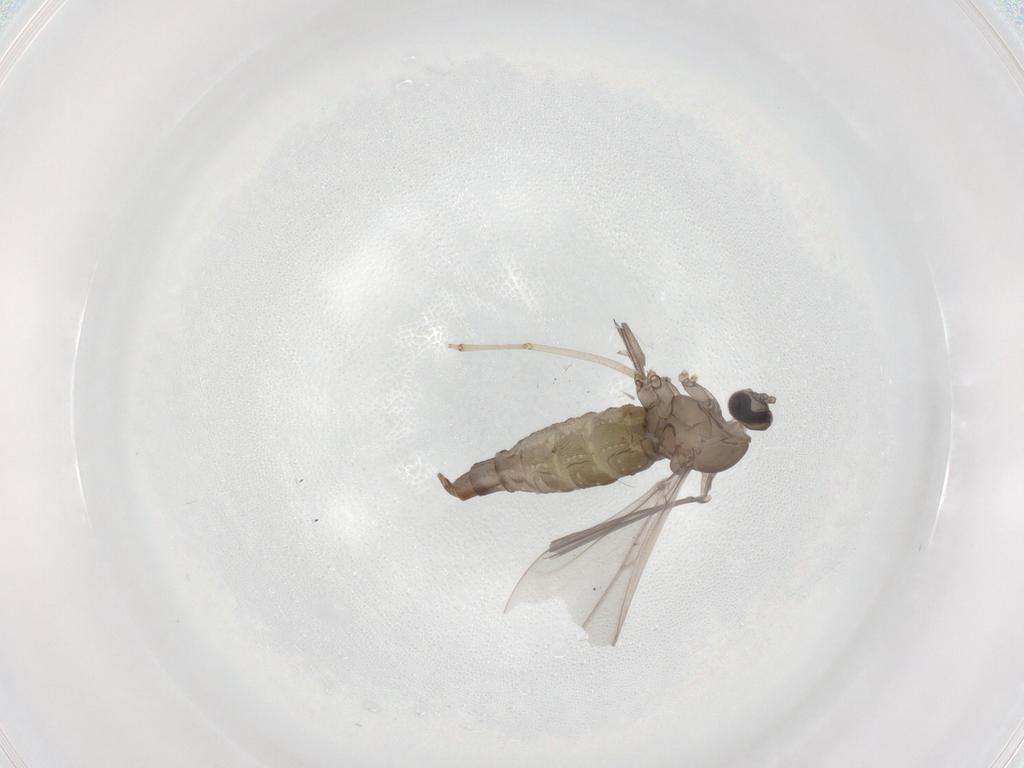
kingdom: Animalia
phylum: Arthropoda
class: Insecta
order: Diptera
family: Cecidomyiidae
